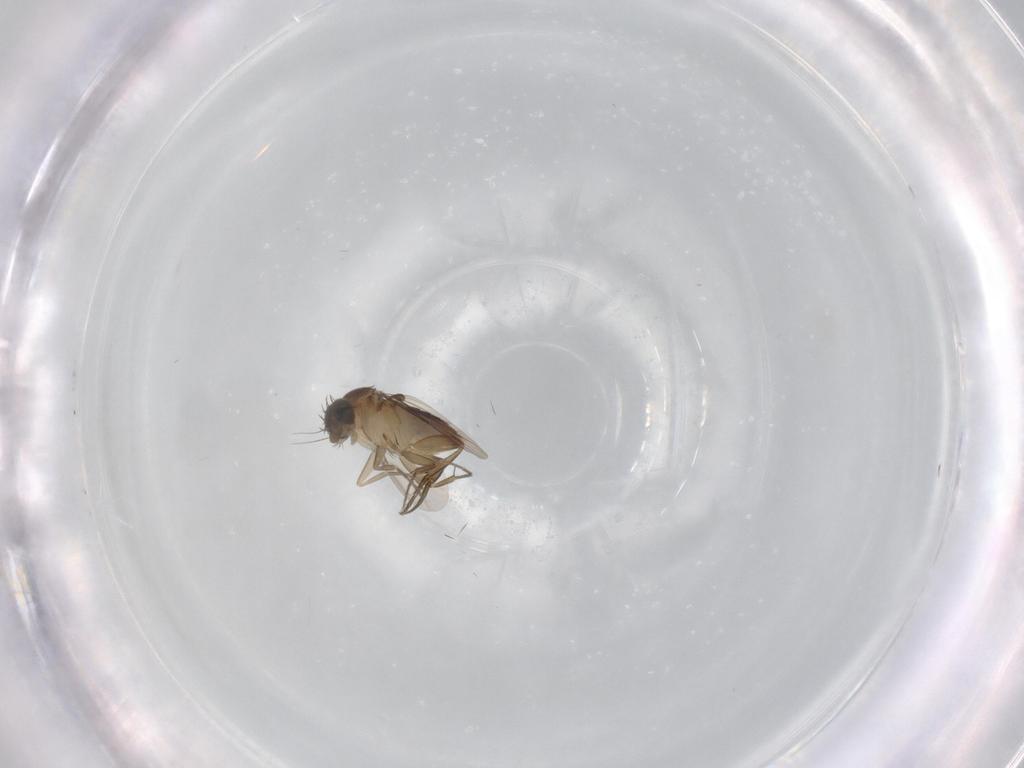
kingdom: Animalia
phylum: Arthropoda
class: Insecta
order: Diptera
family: Phoridae
